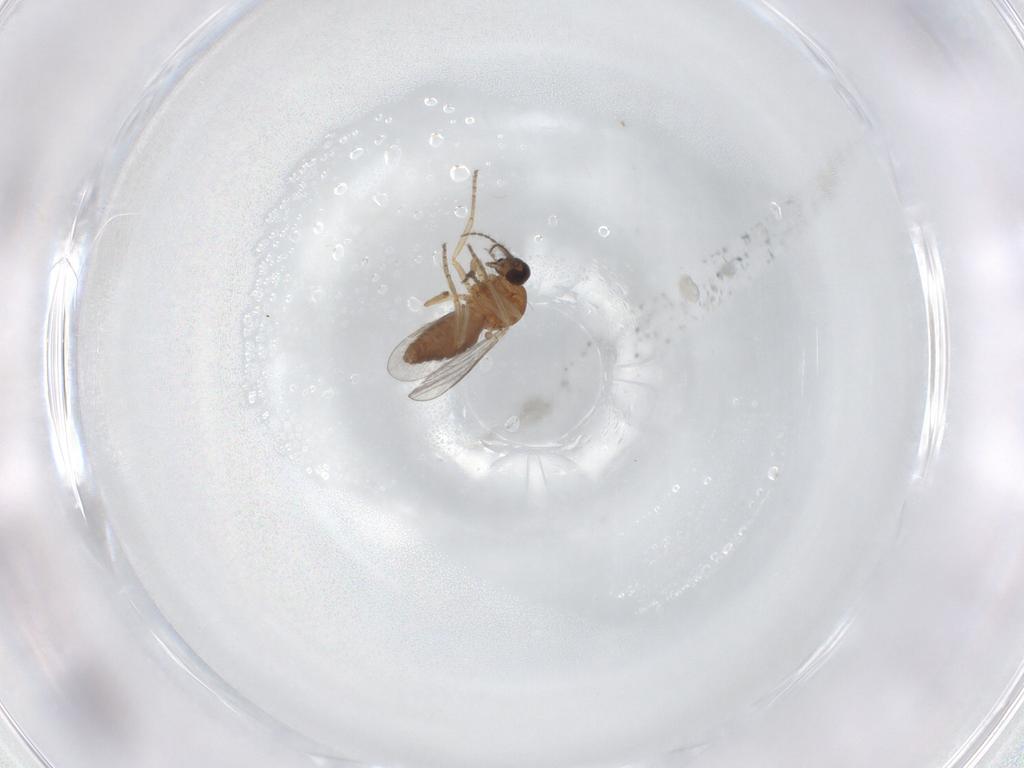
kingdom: Animalia
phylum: Arthropoda
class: Insecta
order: Diptera
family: Ceratopogonidae
